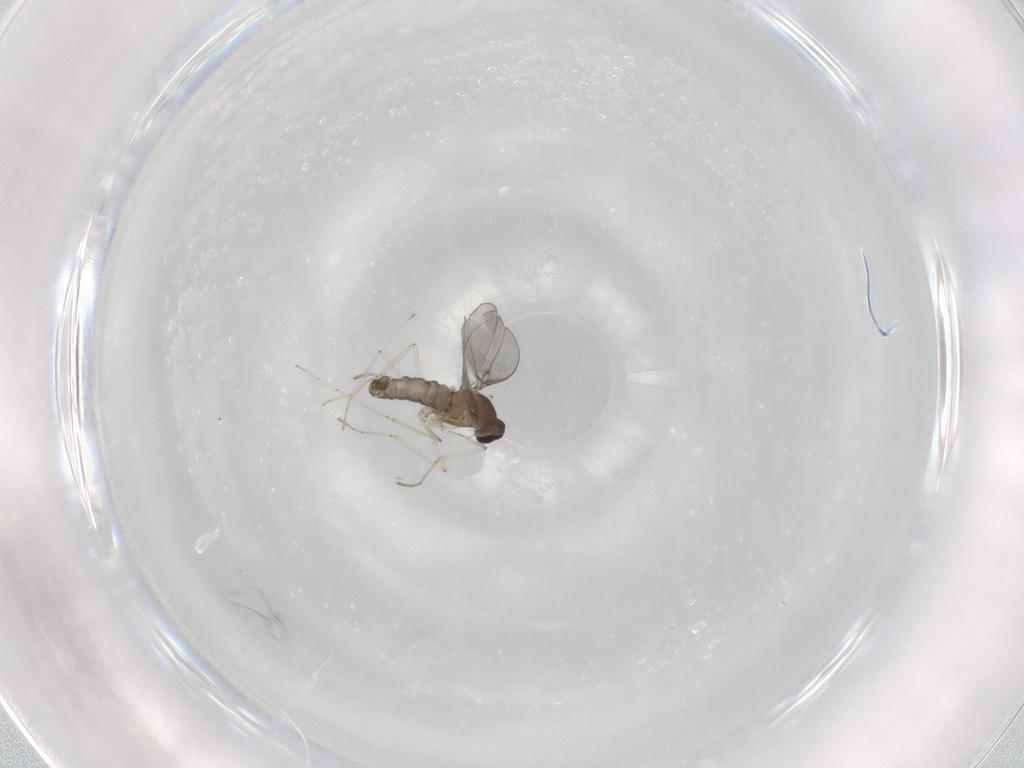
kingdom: Animalia
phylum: Arthropoda
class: Insecta
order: Diptera
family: Cecidomyiidae
